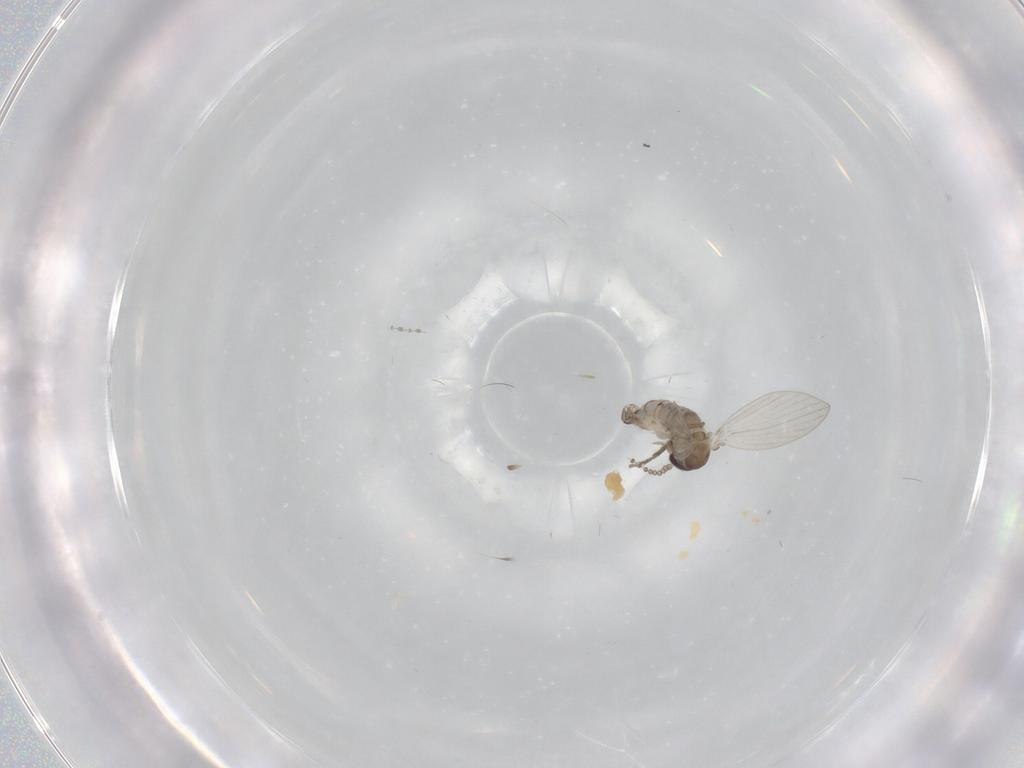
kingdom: Animalia
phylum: Arthropoda
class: Insecta
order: Diptera
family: Psychodidae
